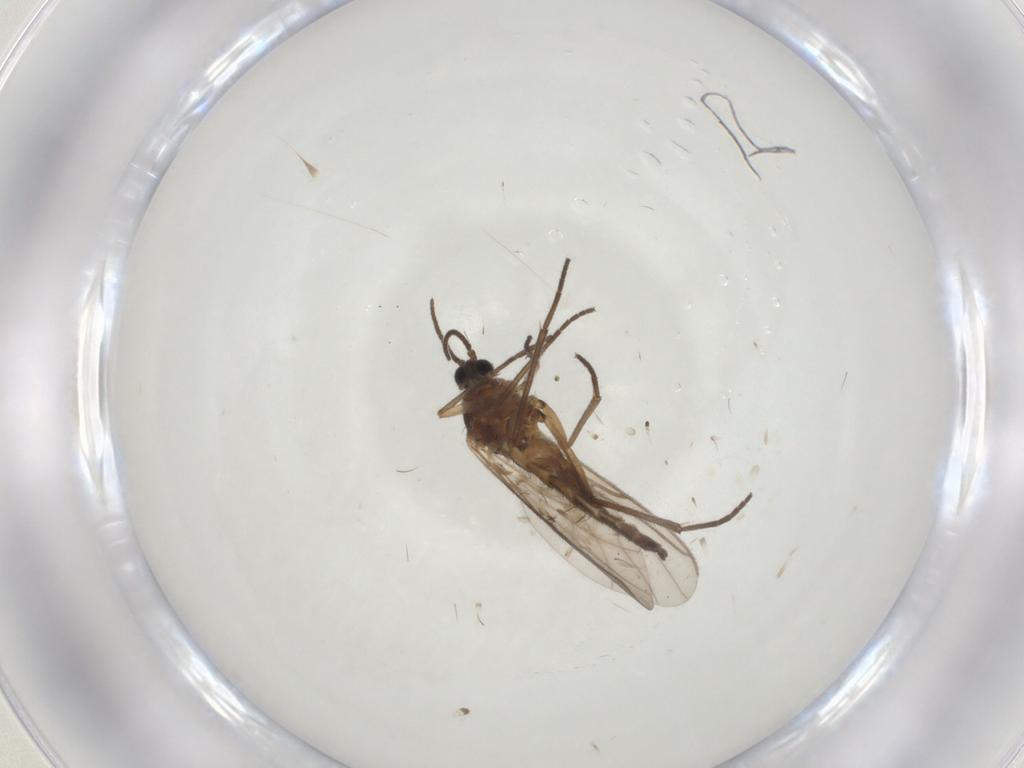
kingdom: Animalia
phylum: Arthropoda
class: Insecta
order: Diptera
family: Sciaridae
